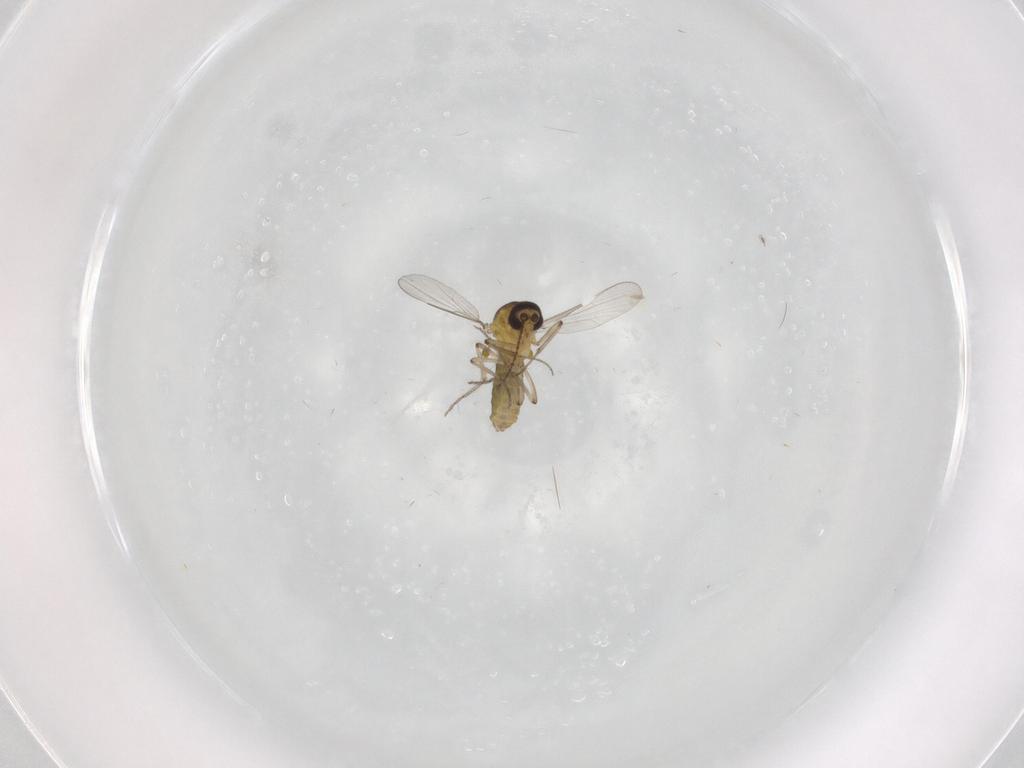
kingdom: Animalia
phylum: Arthropoda
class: Insecta
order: Diptera
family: Ceratopogonidae
